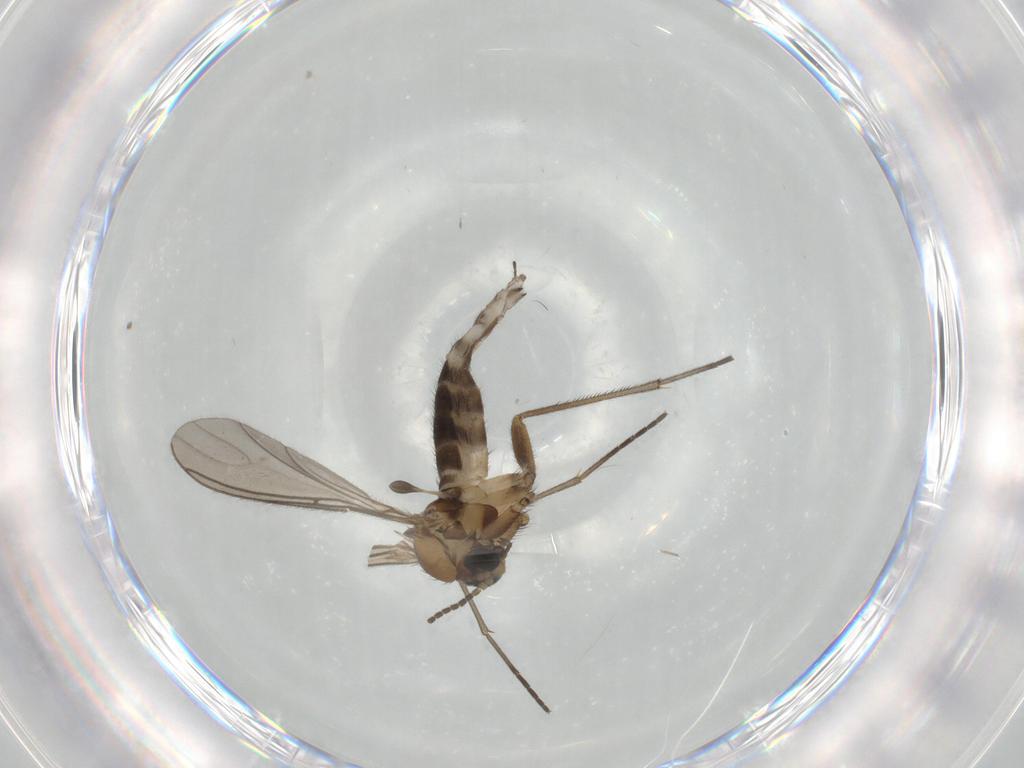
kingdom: Animalia
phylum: Arthropoda
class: Insecta
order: Diptera
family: Sciaridae
